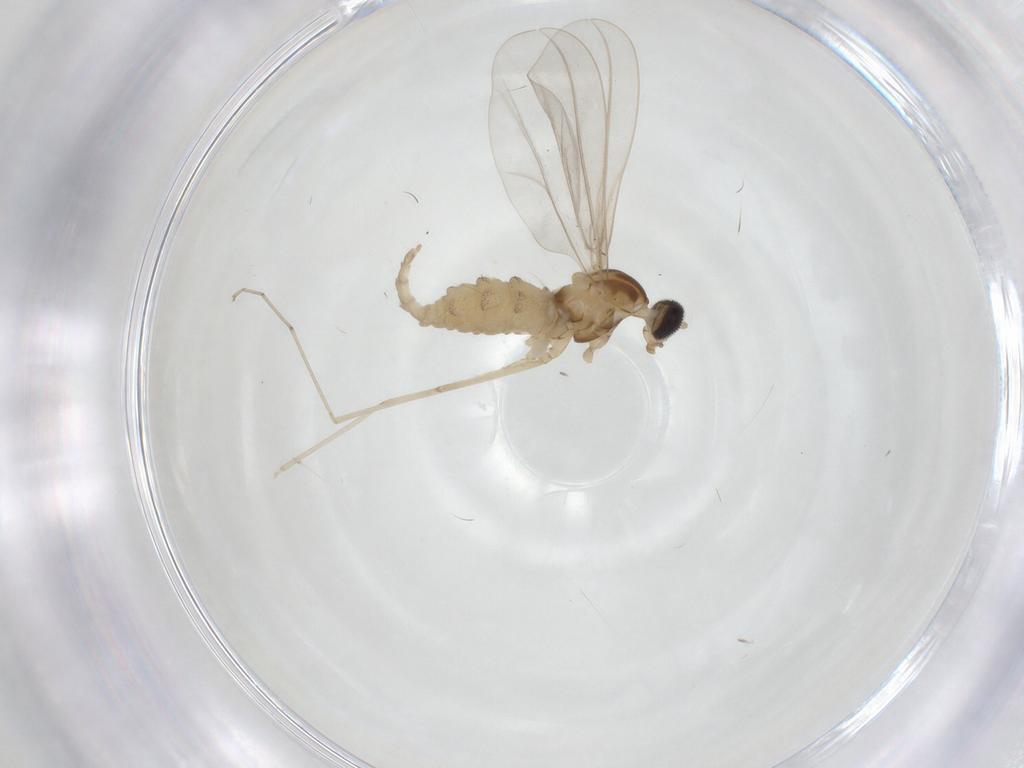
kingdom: Animalia
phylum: Arthropoda
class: Insecta
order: Diptera
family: Cecidomyiidae
